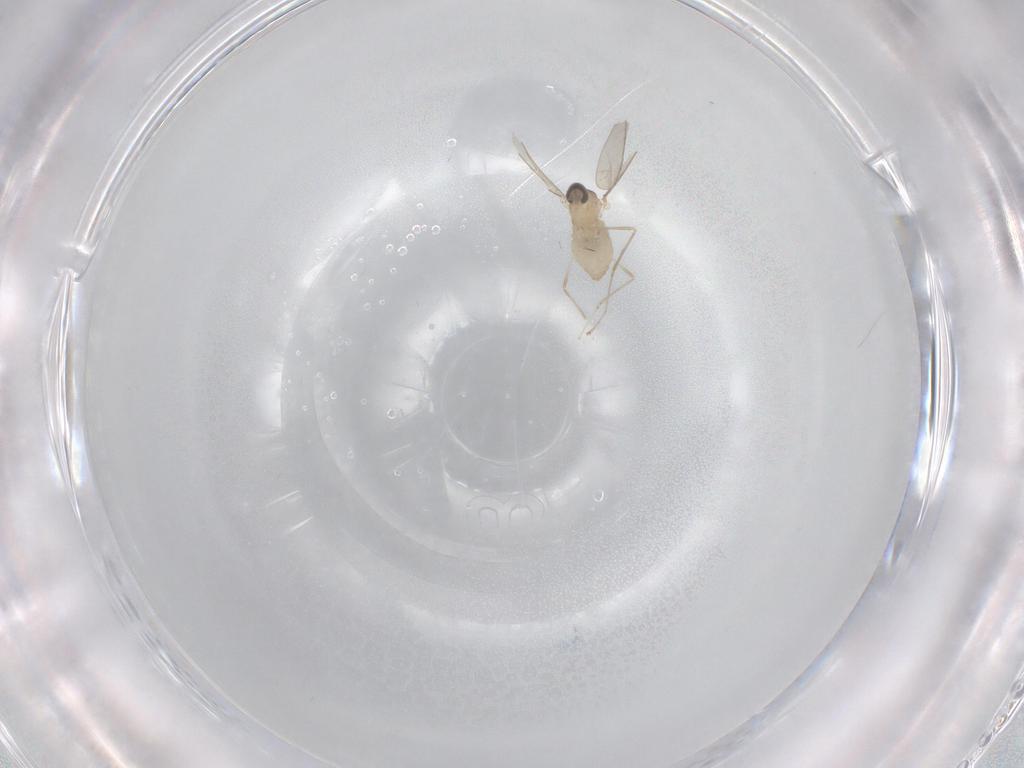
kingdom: Animalia
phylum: Arthropoda
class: Insecta
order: Diptera
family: Cecidomyiidae
